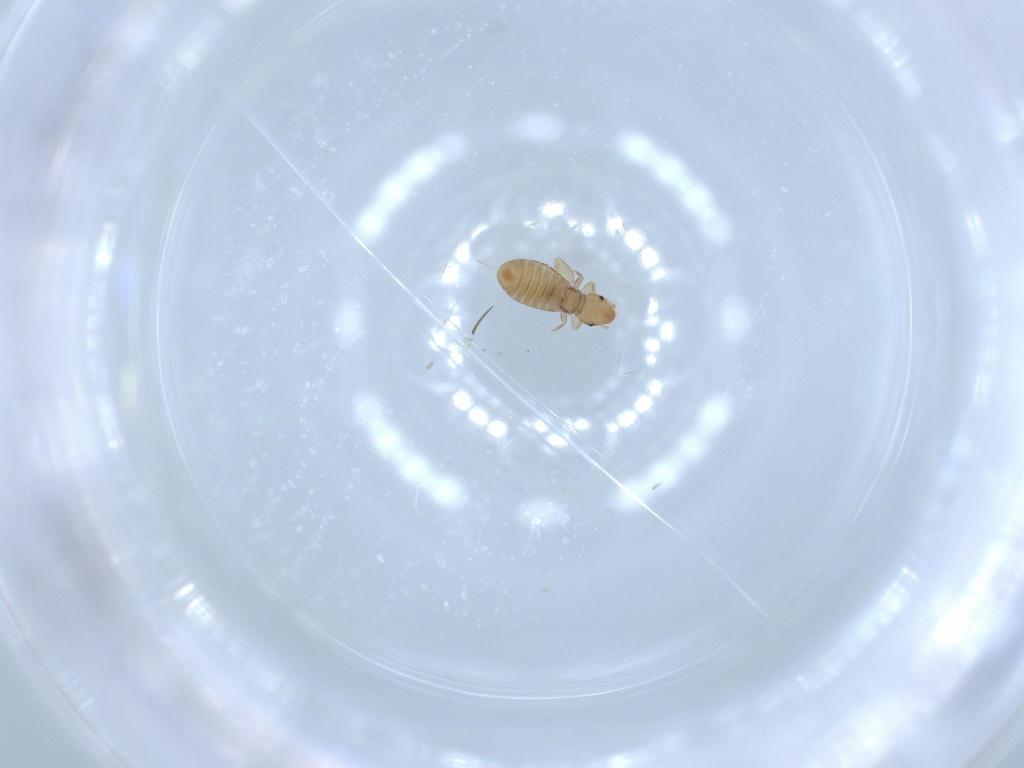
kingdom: Animalia
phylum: Arthropoda
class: Insecta
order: Psocodea
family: Liposcelididae
